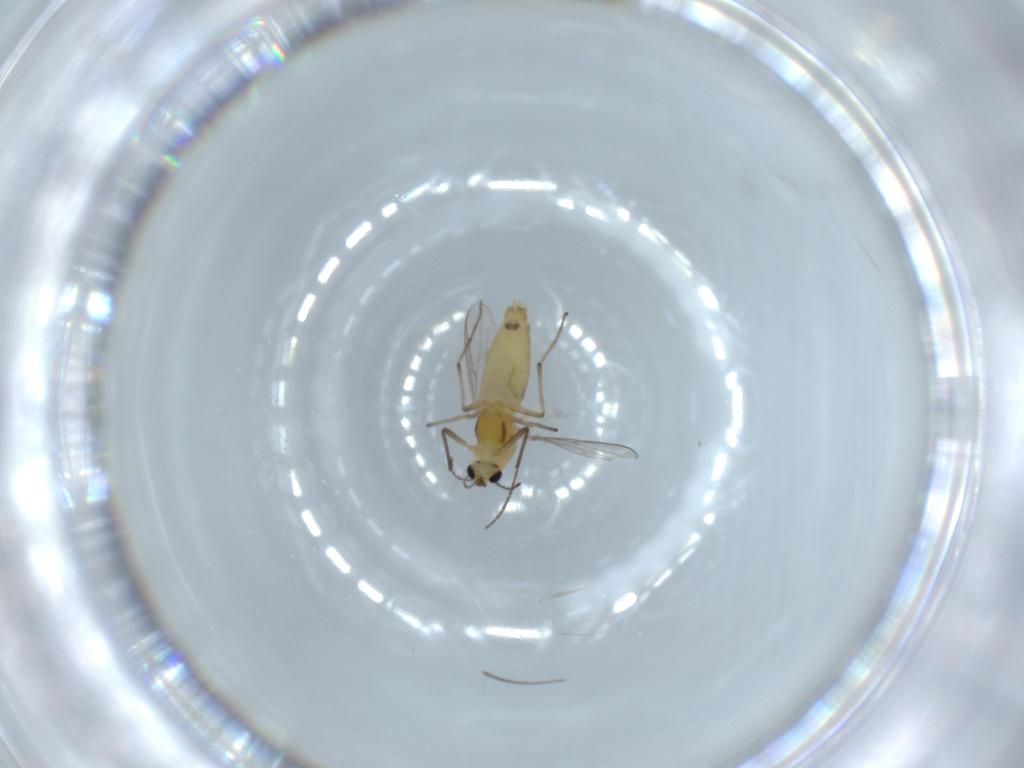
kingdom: Animalia
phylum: Arthropoda
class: Insecta
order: Diptera
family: Chironomidae
